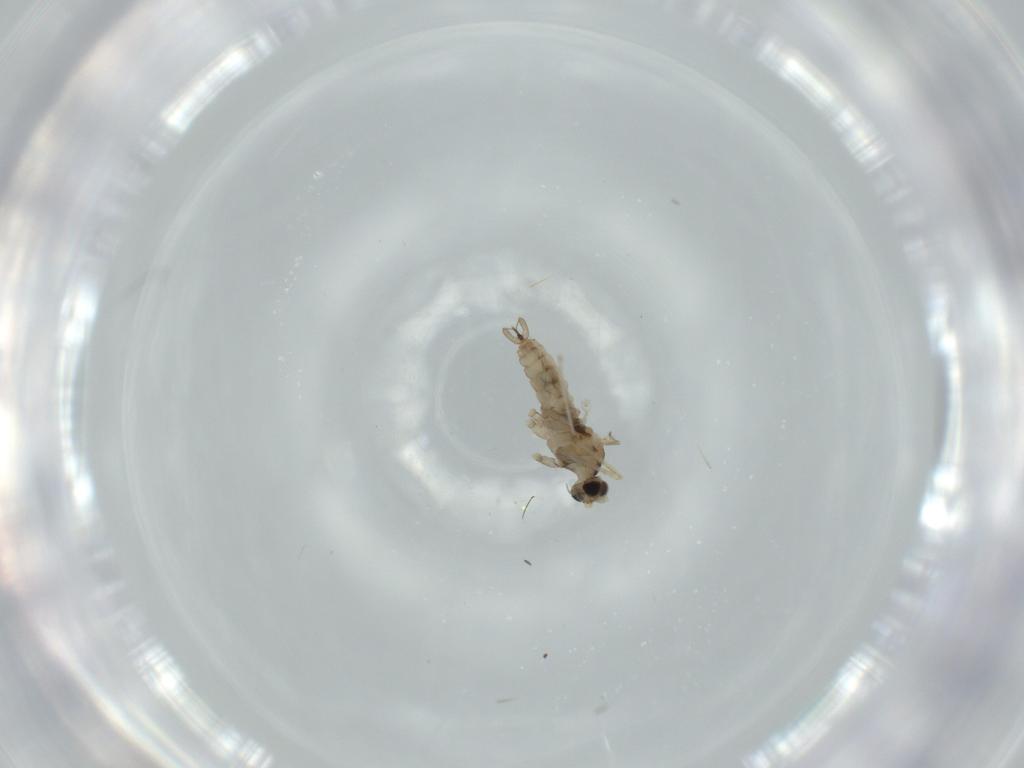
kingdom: Animalia
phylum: Arthropoda
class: Insecta
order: Diptera
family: Cecidomyiidae
